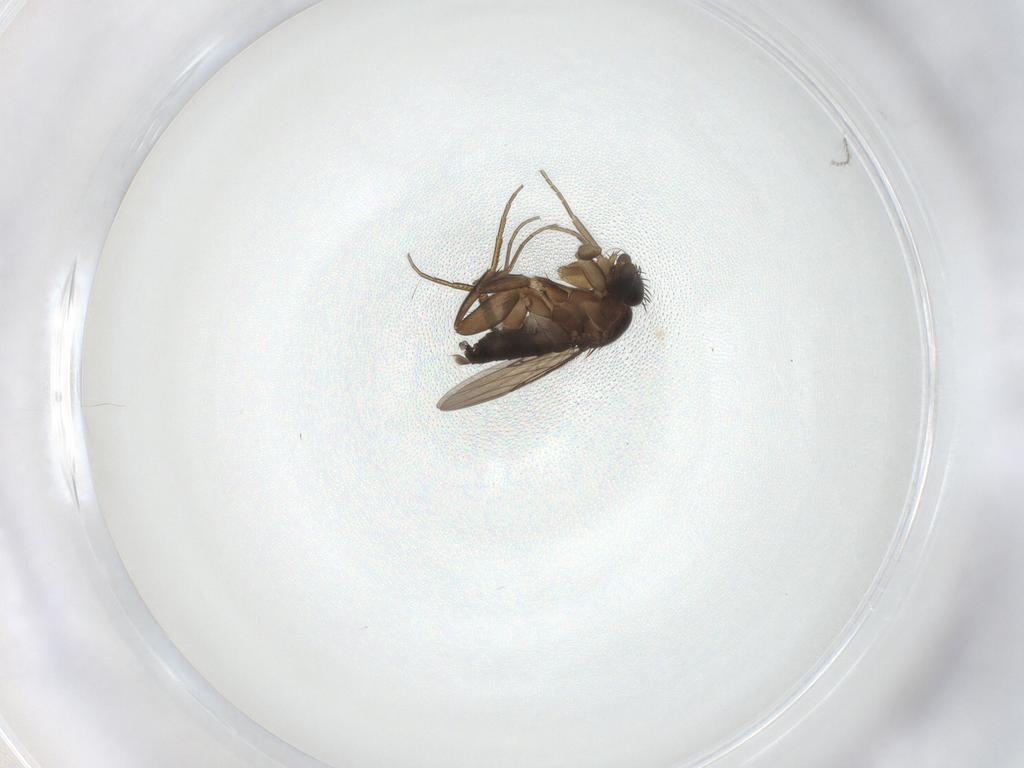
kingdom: Animalia
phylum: Arthropoda
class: Insecta
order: Diptera
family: Phoridae
